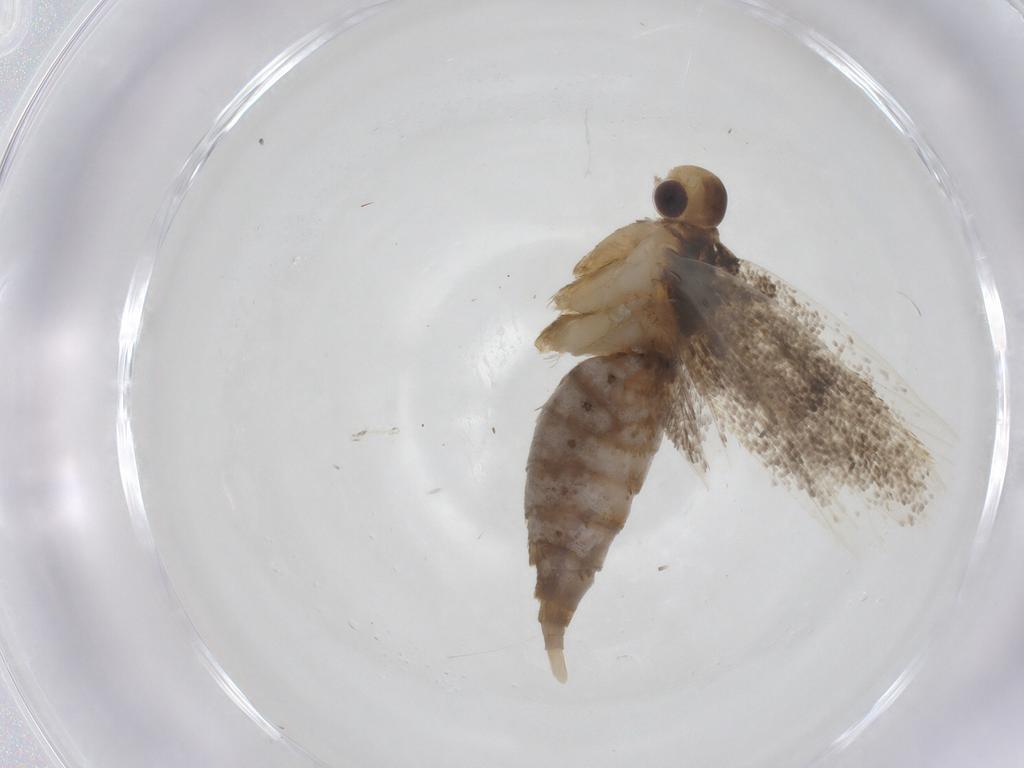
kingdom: Animalia
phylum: Arthropoda
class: Insecta
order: Lepidoptera
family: Lecithoceridae
